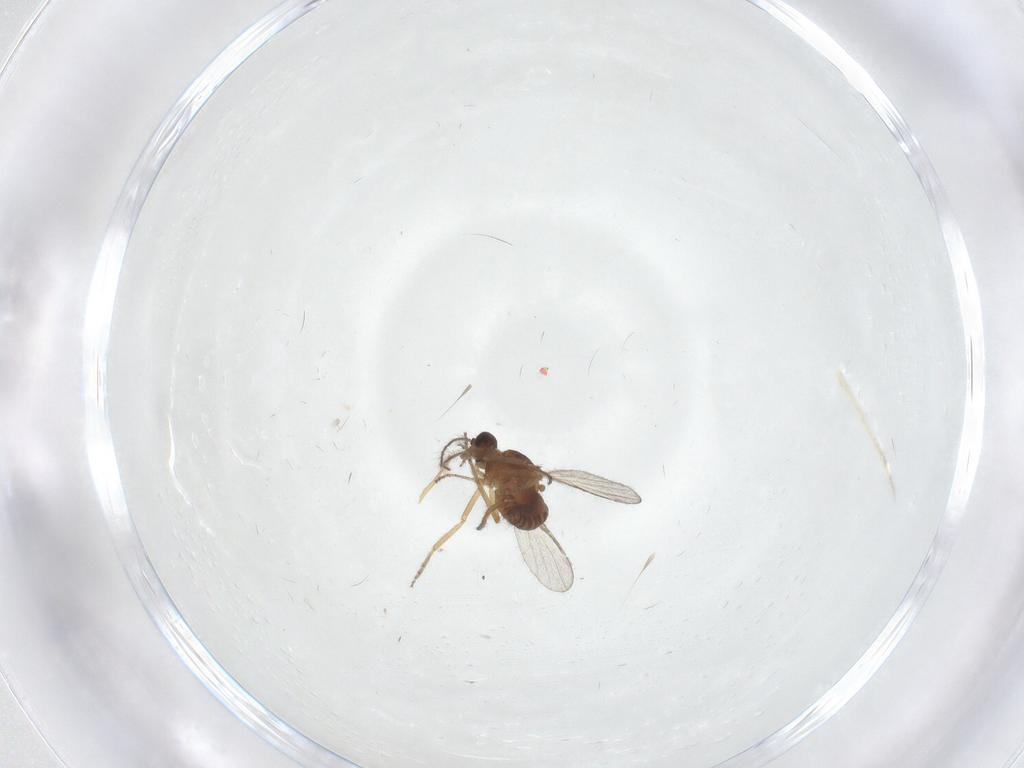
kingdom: Animalia
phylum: Arthropoda
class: Insecta
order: Diptera
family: Ceratopogonidae
